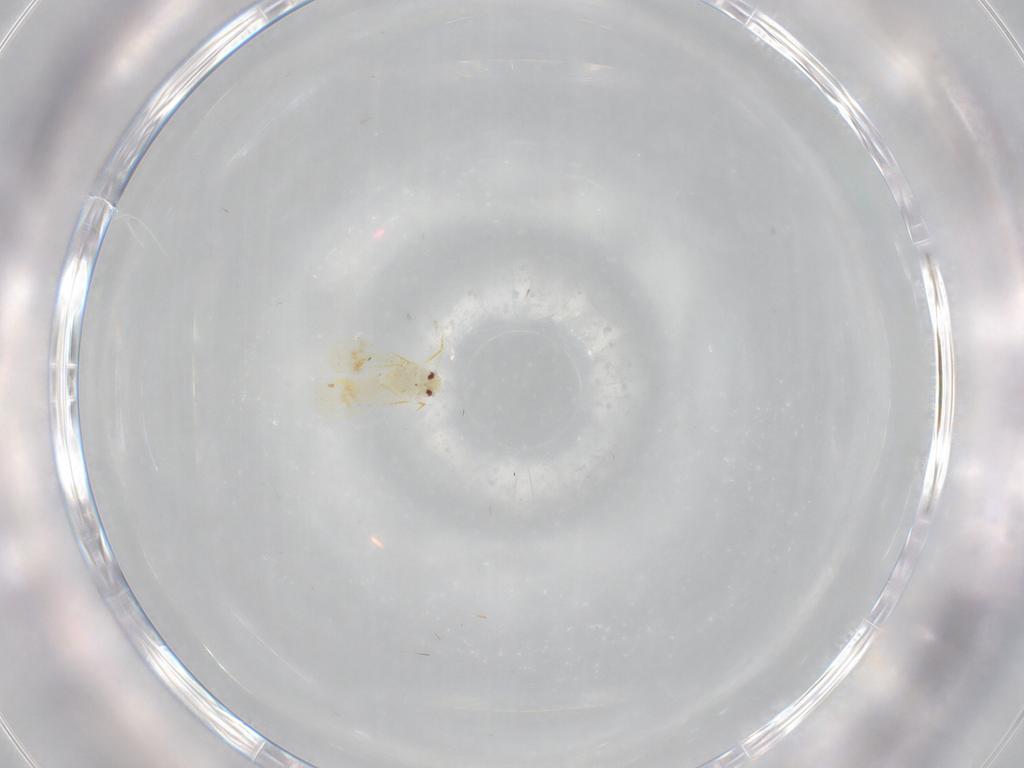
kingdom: Animalia
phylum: Arthropoda
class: Insecta
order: Hemiptera
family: Aleyrodidae
